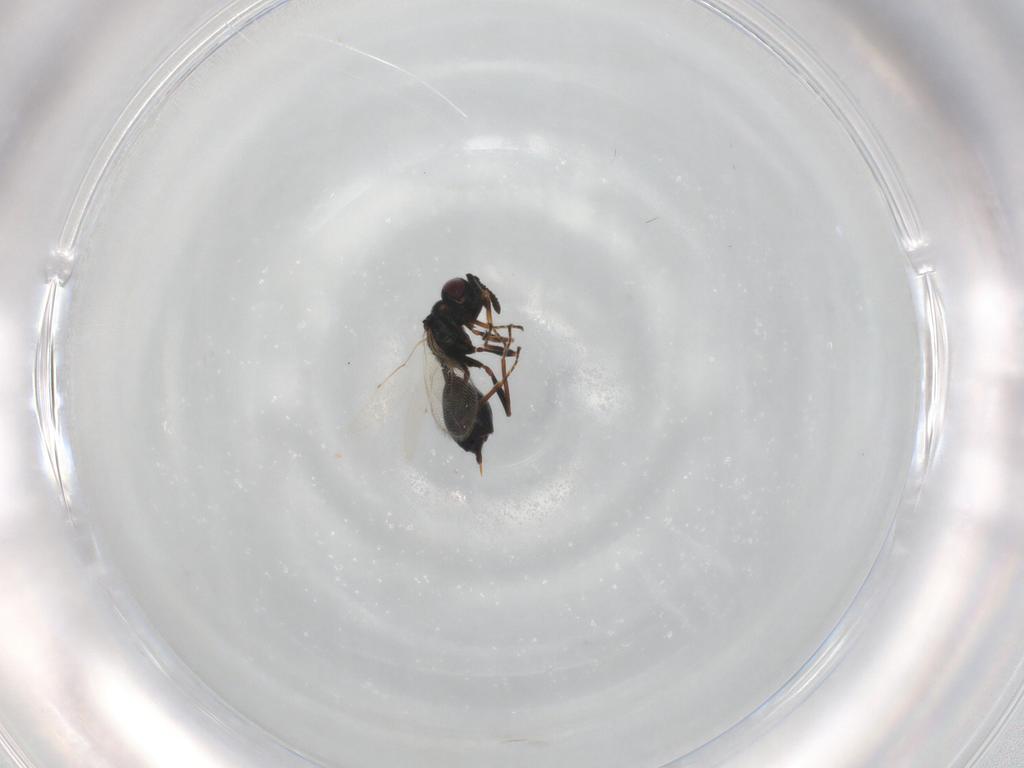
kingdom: Animalia
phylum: Arthropoda
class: Insecta
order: Hymenoptera
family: Pteromalidae
